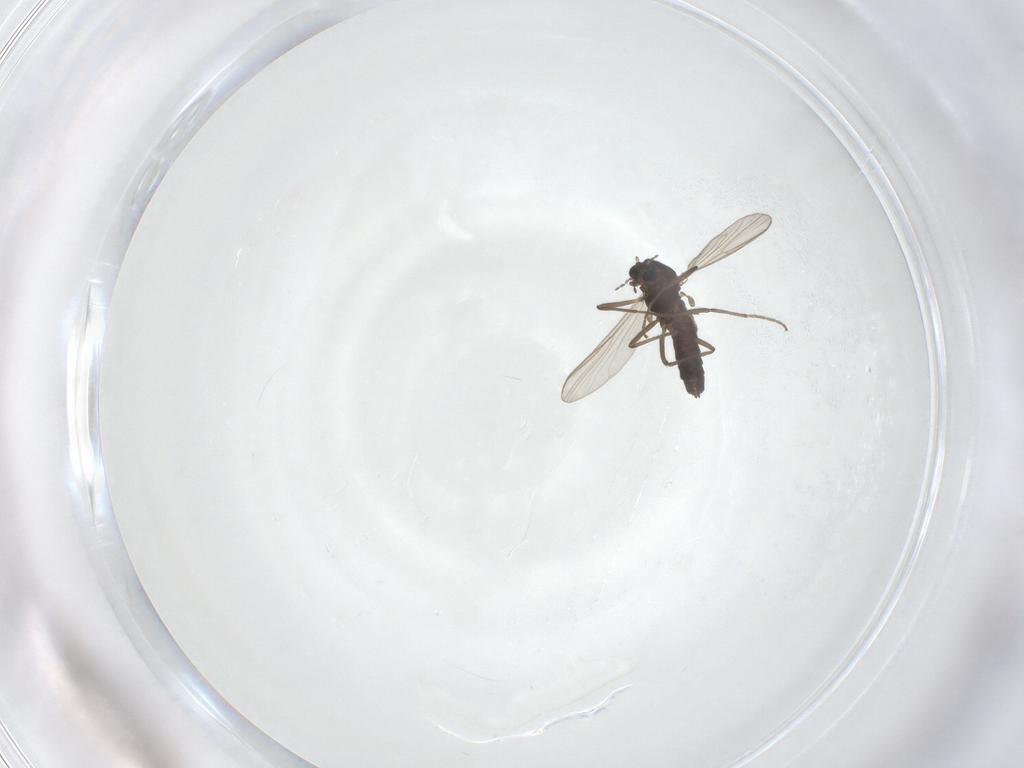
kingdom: Animalia
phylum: Arthropoda
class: Insecta
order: Diptera
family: Chironomidae
